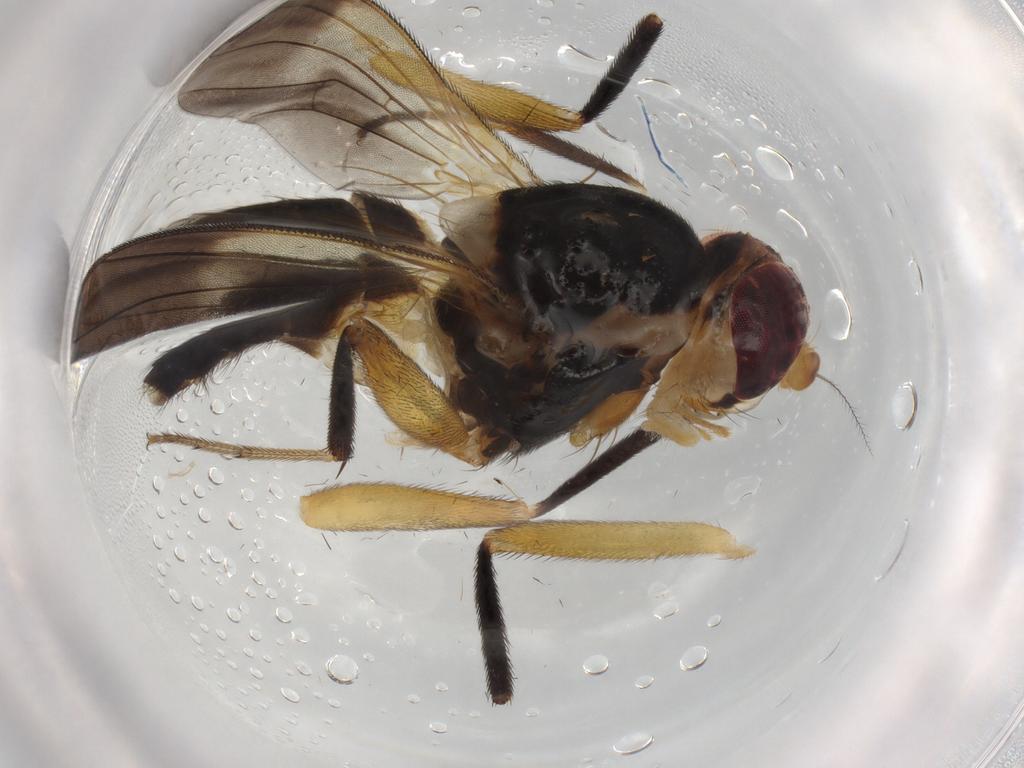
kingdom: Animalia
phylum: Arthropoda
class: Insecta
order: Diptera
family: Clusiidae
